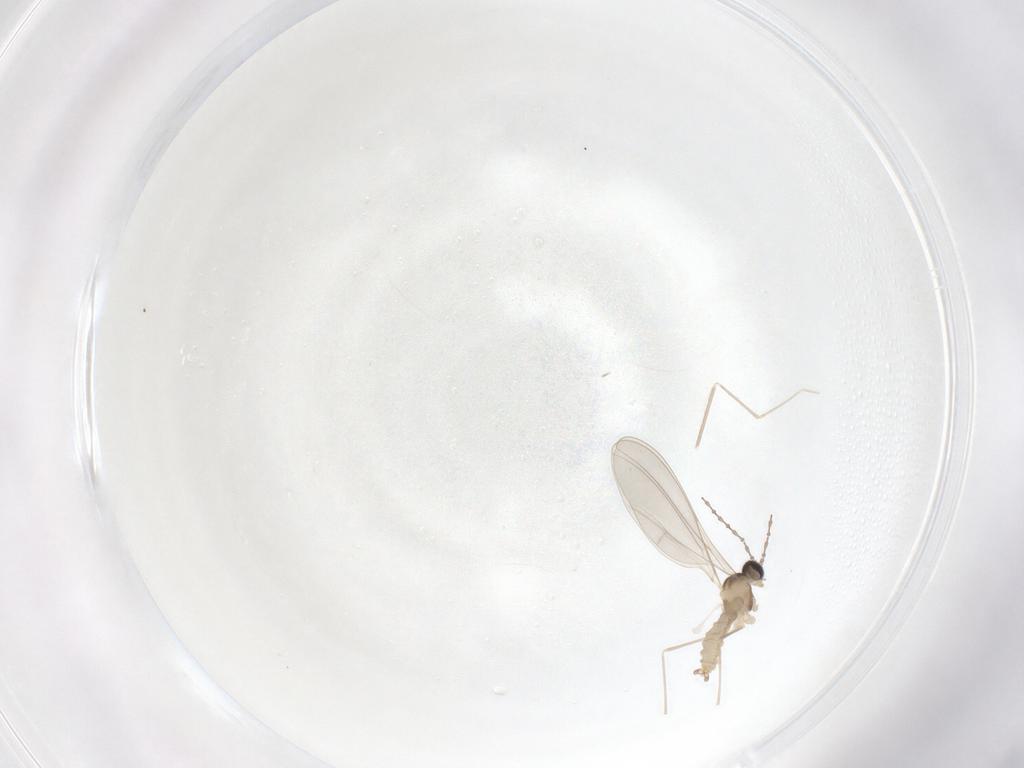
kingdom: Animalia
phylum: Arthropoda
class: Insecta
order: Diptera
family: Cecidomyiidae
